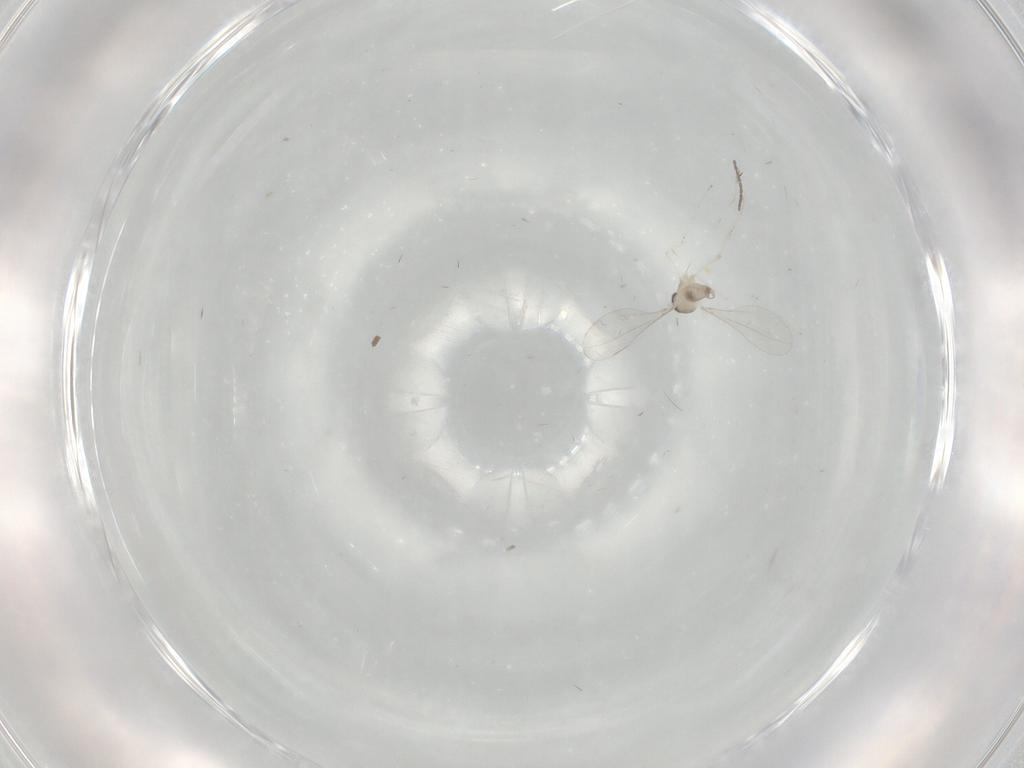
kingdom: Animalia
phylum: Arthropoda
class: Insecta
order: Diptera
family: Cecidomyiidae
